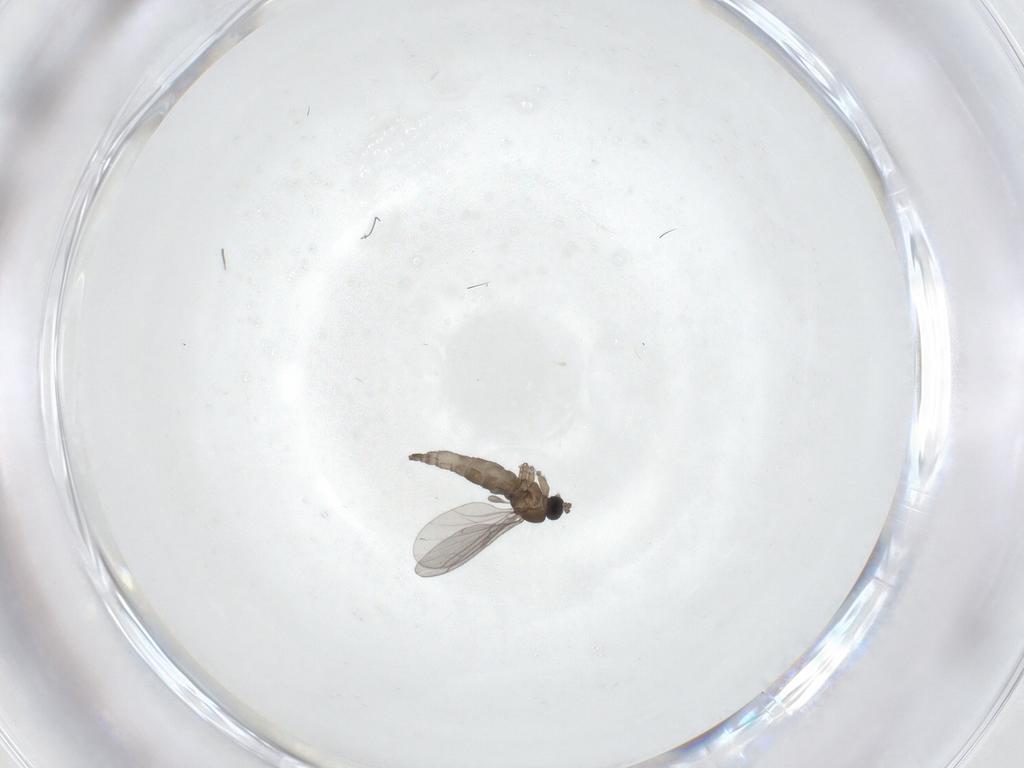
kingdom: Animalia
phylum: Arthropoda
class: Insecta
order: Diptera
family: Sciaridae
